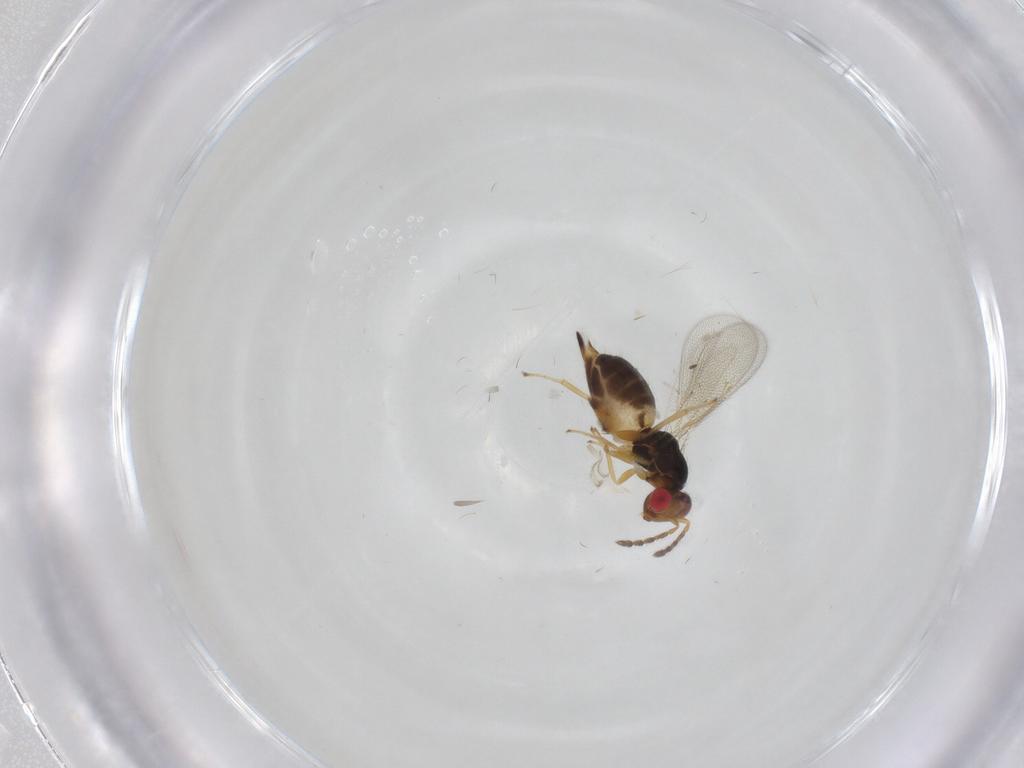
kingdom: Animalia
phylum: Arthropoda
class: Insecta
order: Hymenoptera
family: Eulophidae
